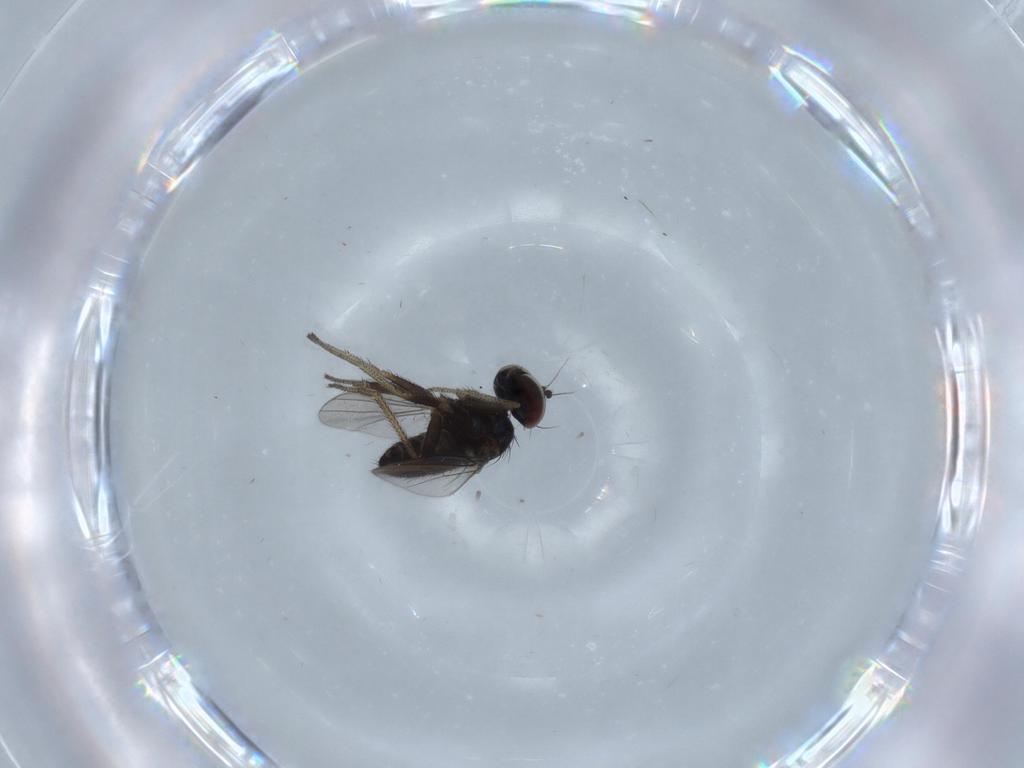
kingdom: Animalia
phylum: Arthropoda
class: Insecta
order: Diptera
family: Dolichopodidae
